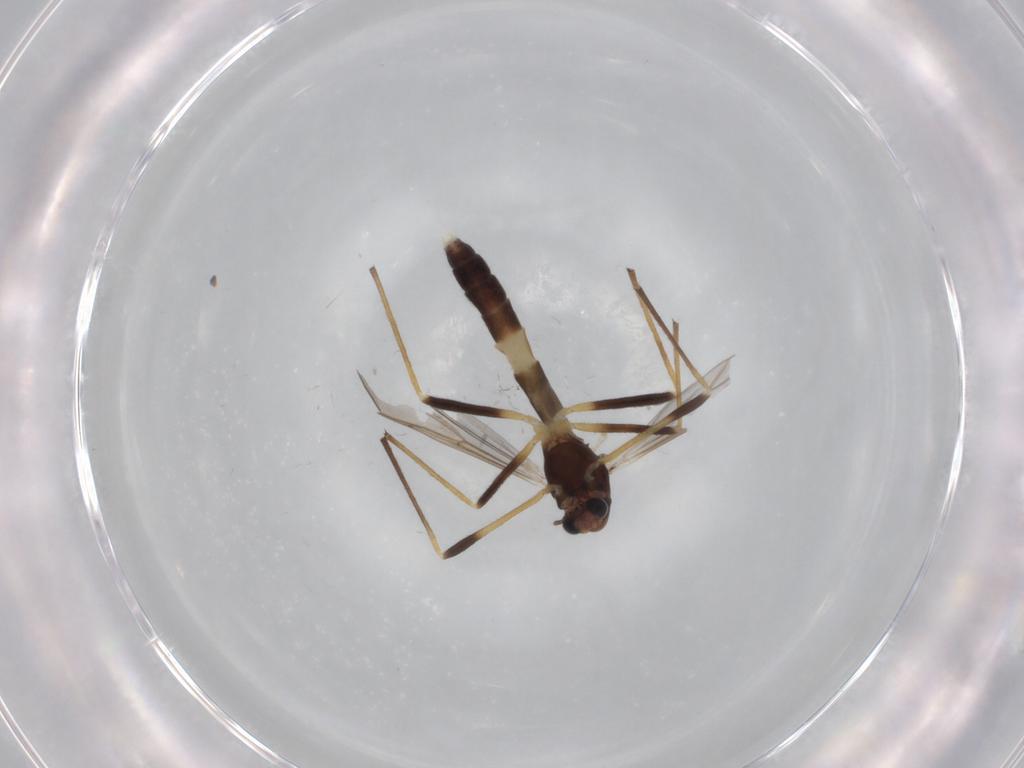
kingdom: Animalia
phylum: Arthropoda
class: Insecta
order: Diptera
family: Chironomidae
